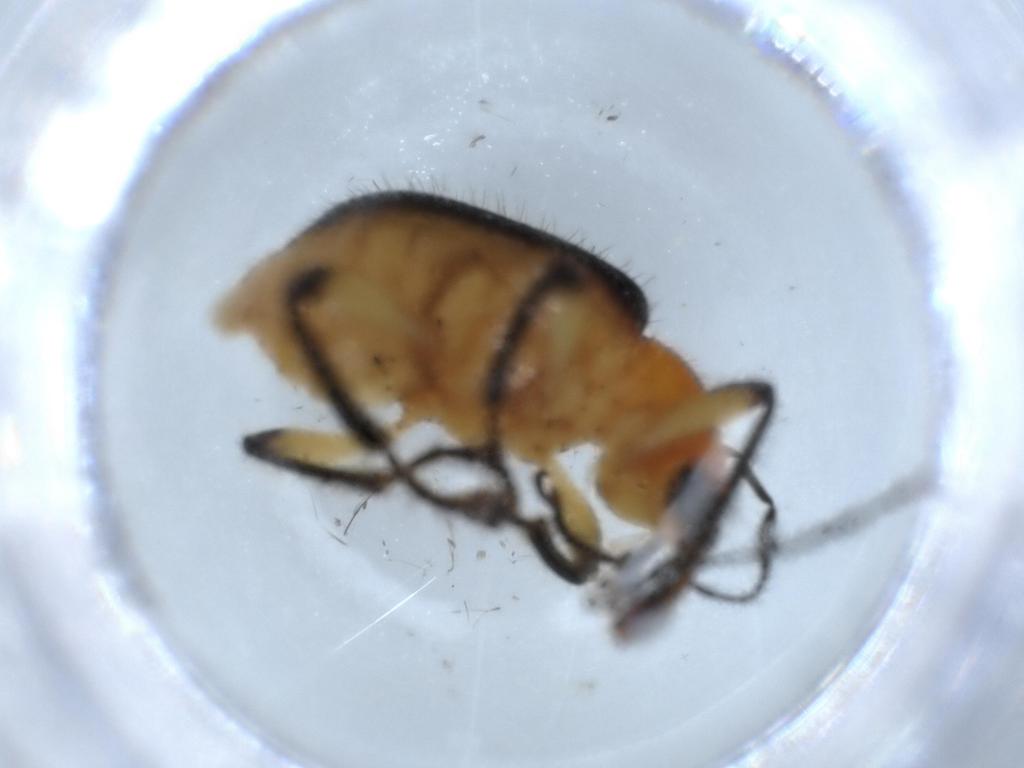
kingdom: Animalia
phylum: Arthropoda
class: Insecta
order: Coleoptera
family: Attelabidae
